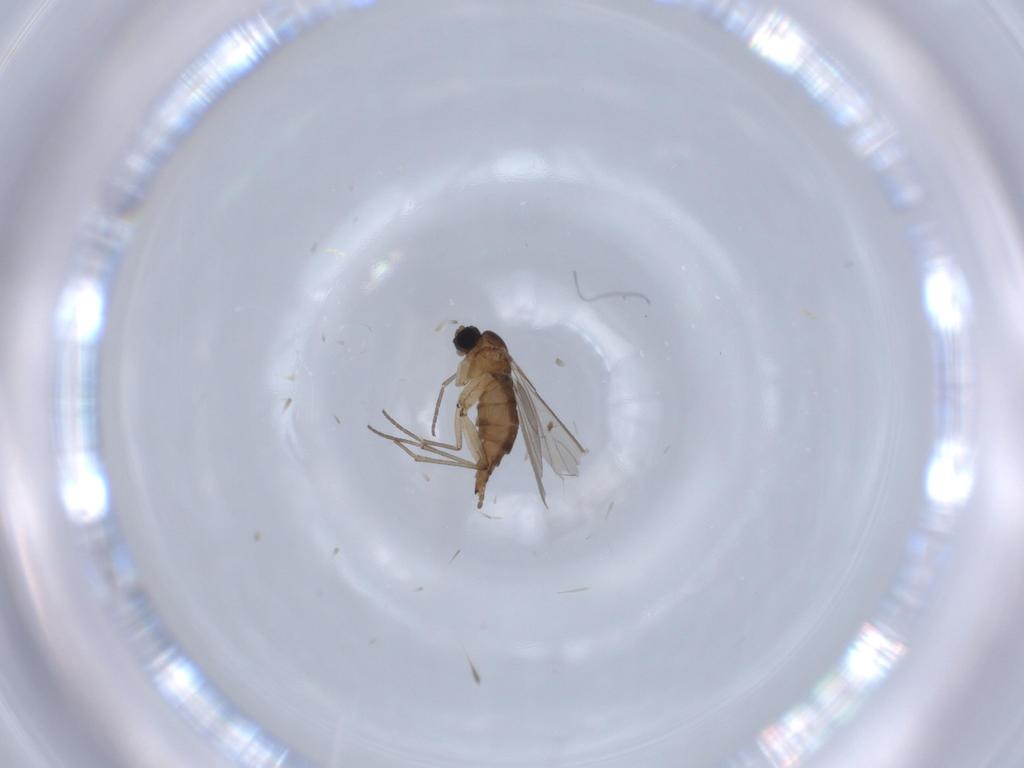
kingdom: Animalia
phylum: Arthropoda
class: Insecta
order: Diptera
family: Sciaridae
